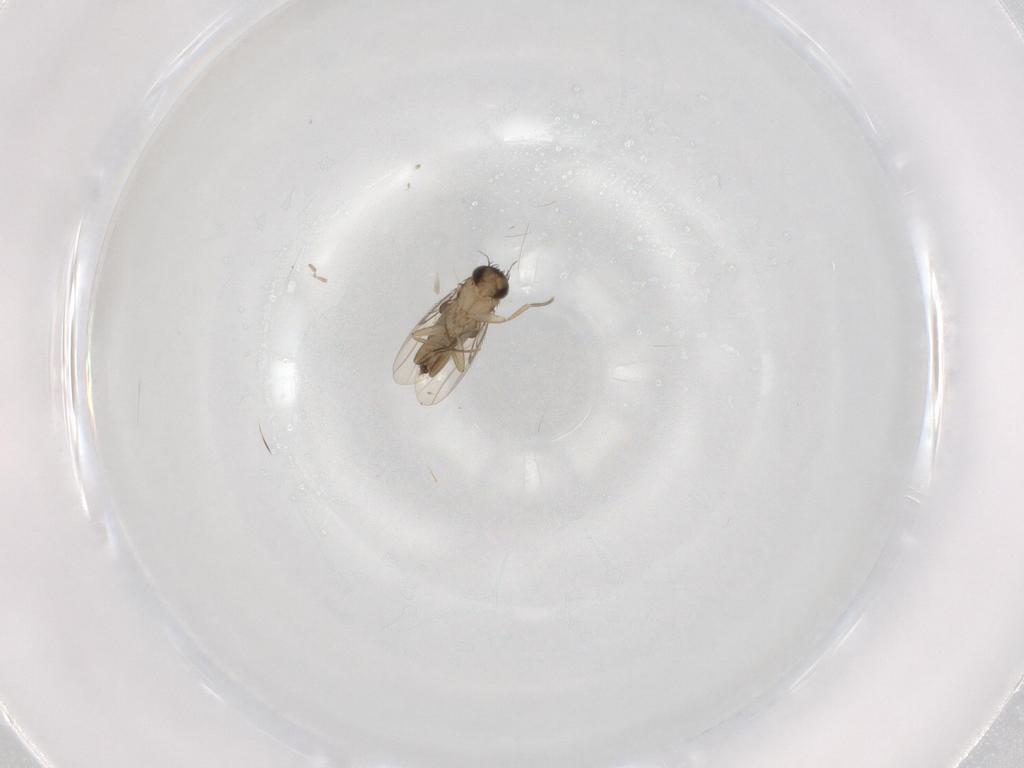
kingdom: Animalia
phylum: Arthropoda
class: Insecta
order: Diptera
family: Phoridae
